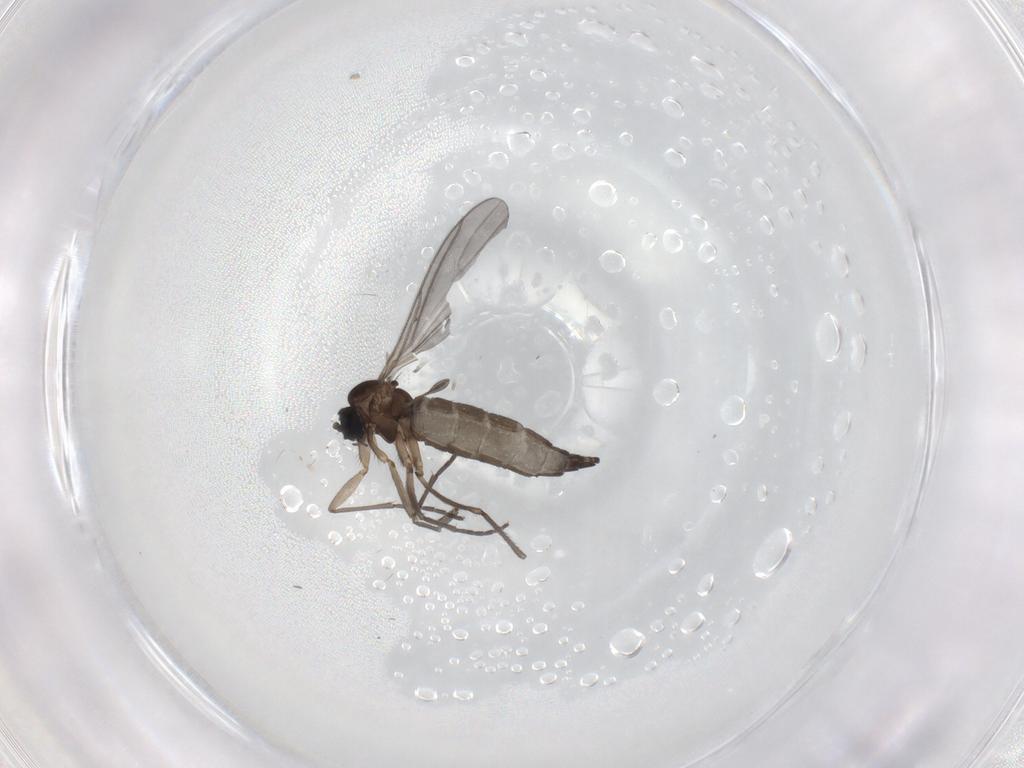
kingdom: Animalia
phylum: Arthropoda
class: Insecta
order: Diptera
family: Sciaridae
